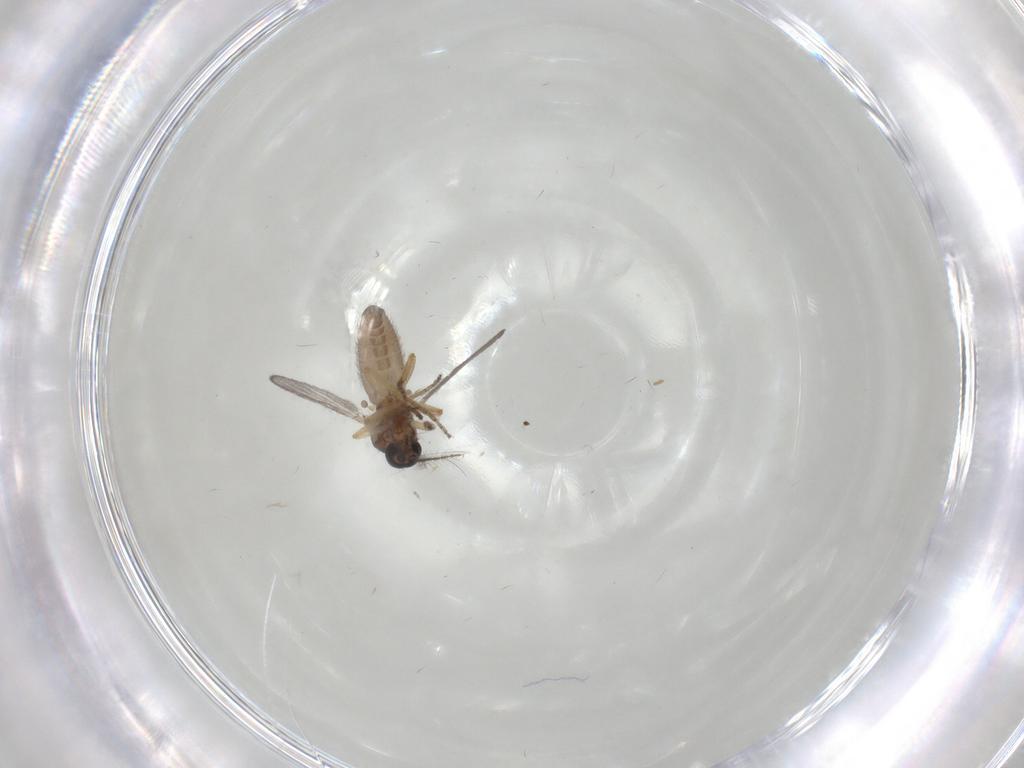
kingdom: Animalia
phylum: Arthropoda
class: Insecta
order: Diptera
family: Ceratopogonidae
